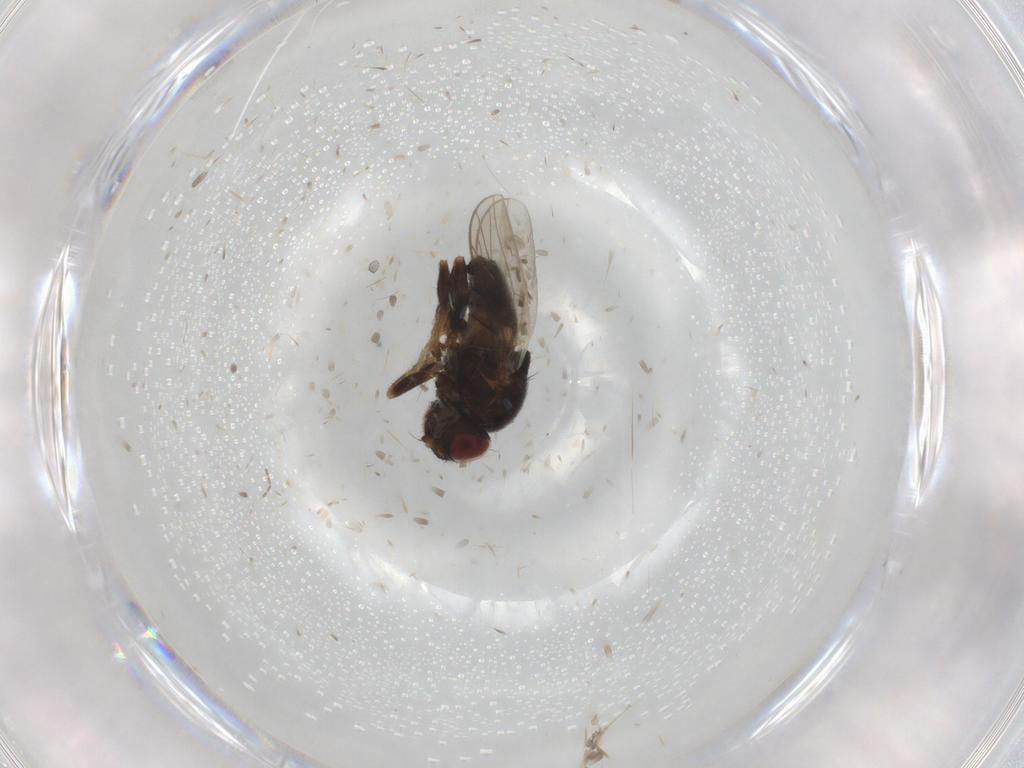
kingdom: Animalia
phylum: Arthropoda
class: Insecta
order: Diptera
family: Chloropidae
